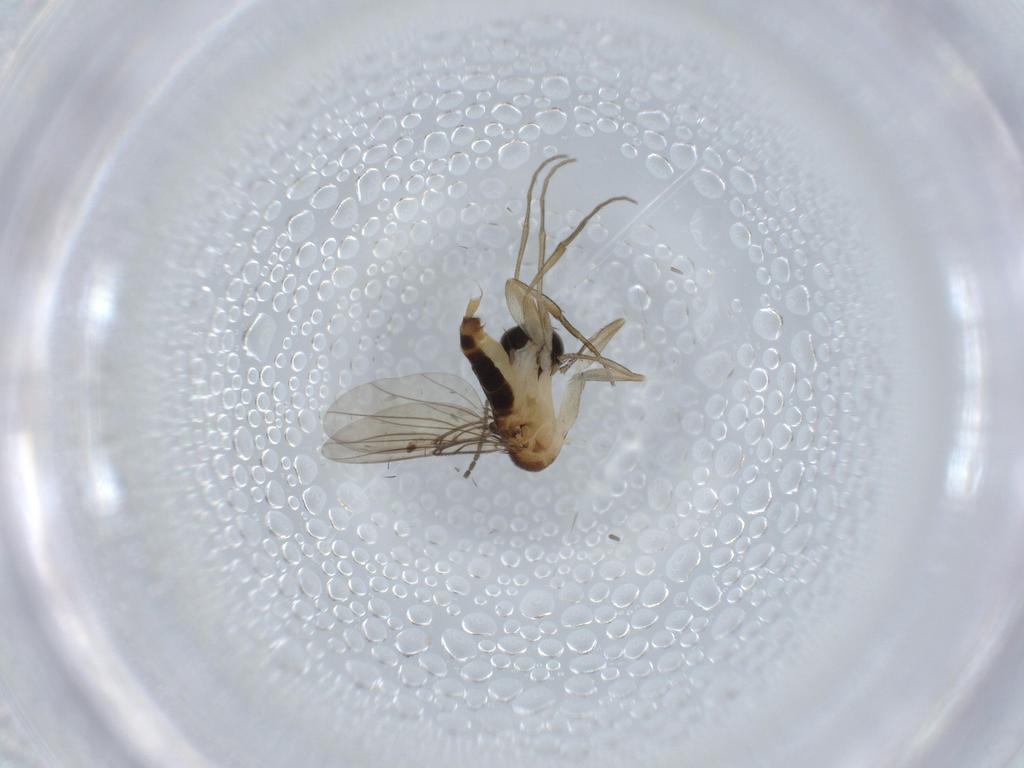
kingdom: Animalia
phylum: Arthropoda
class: Insecta
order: Diptera
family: Phoridae
